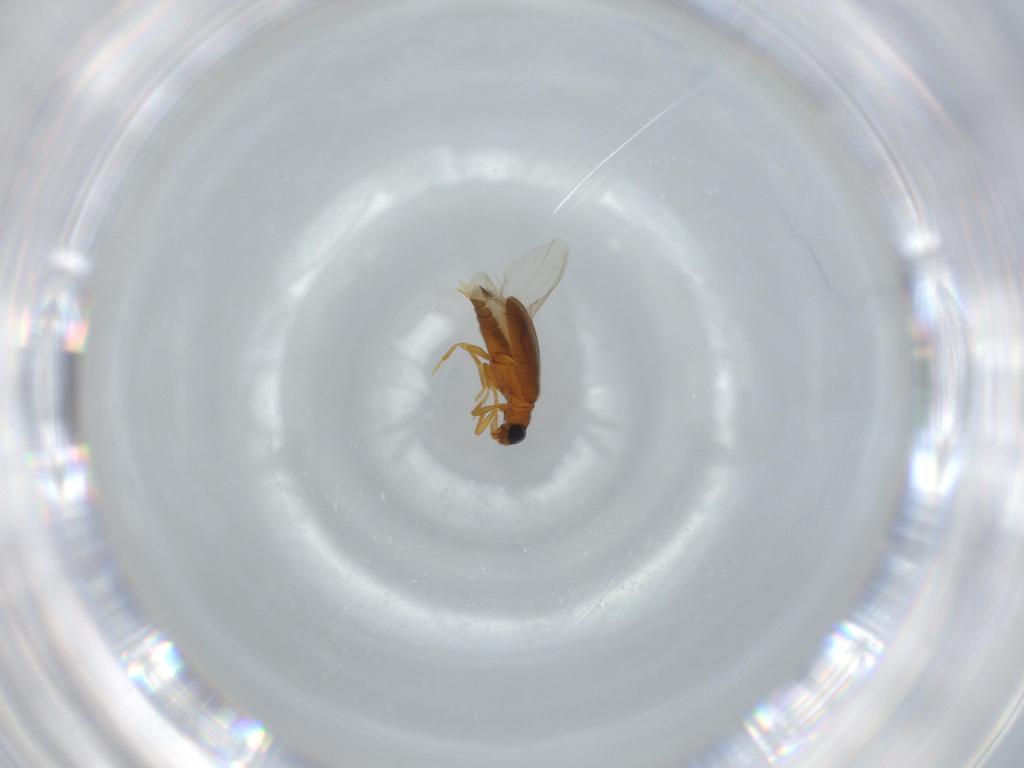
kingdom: Animalia
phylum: Arthropoda
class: Insecta
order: Coleoptera
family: Aderidae
